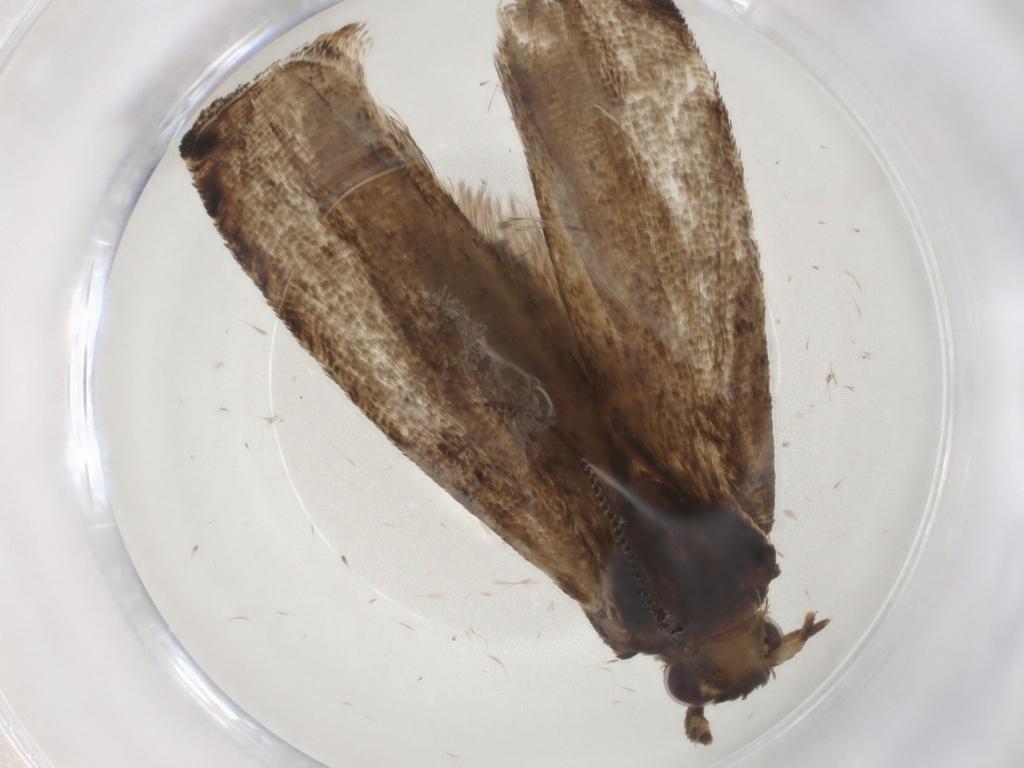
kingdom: Animalia
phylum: Arthropoda
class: Insecta
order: Lepidoptera
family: Tortricidae
